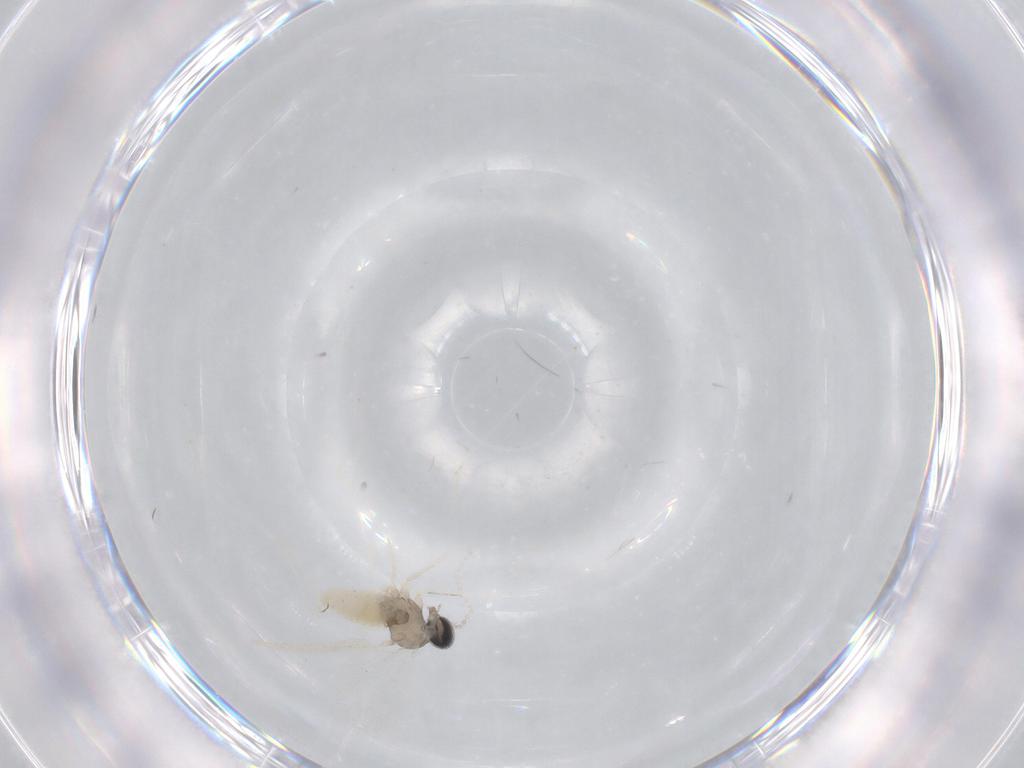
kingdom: Animalia
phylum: Arthropoda
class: Insecta
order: Diptera
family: Cecidomyiidae
